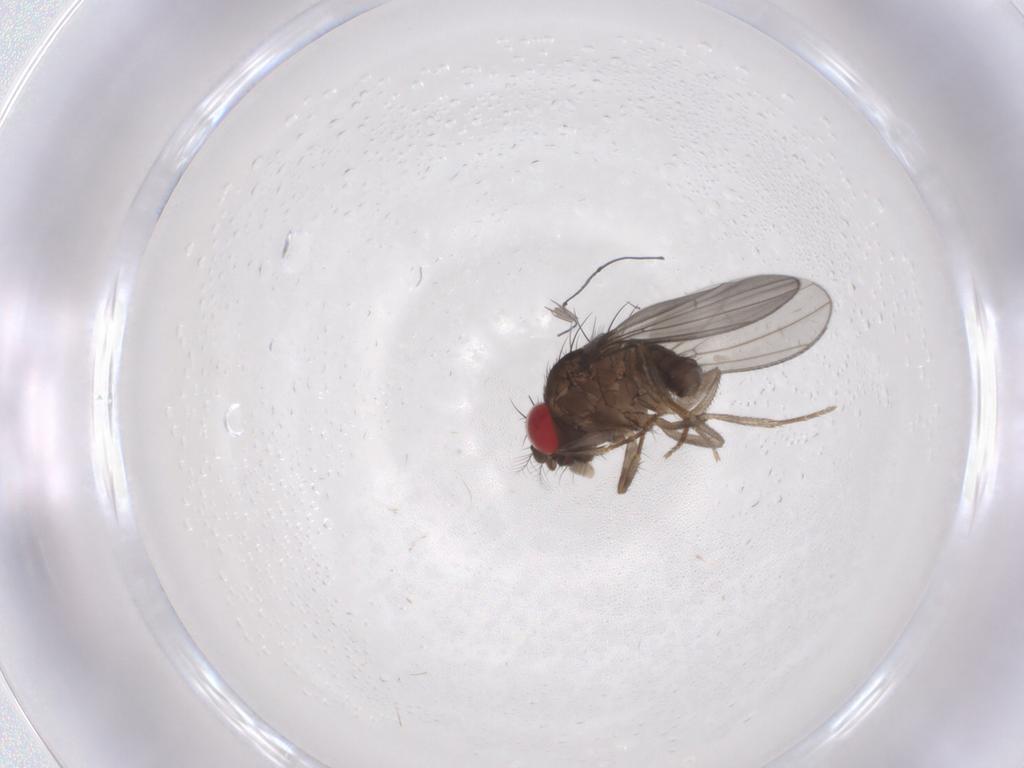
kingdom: Animalia
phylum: Arthropoda
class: Insecta
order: Diptera
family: Drosophilidae
